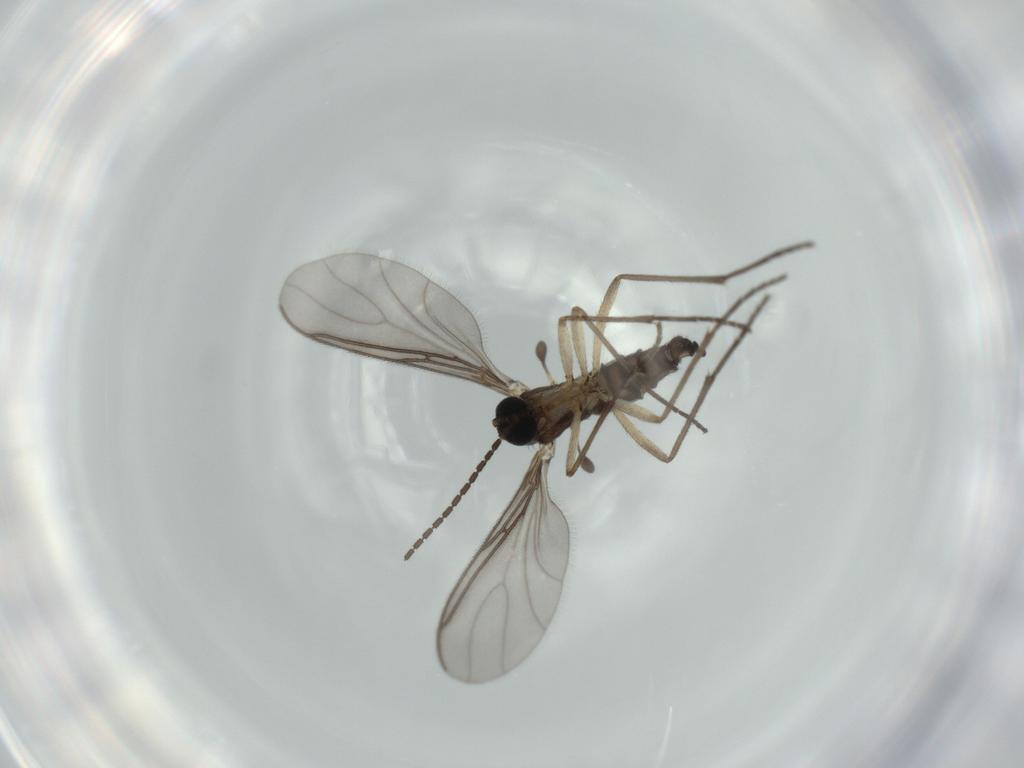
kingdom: Animalia
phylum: Arthropoda
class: Insecta
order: Diptera
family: Sciaridae
